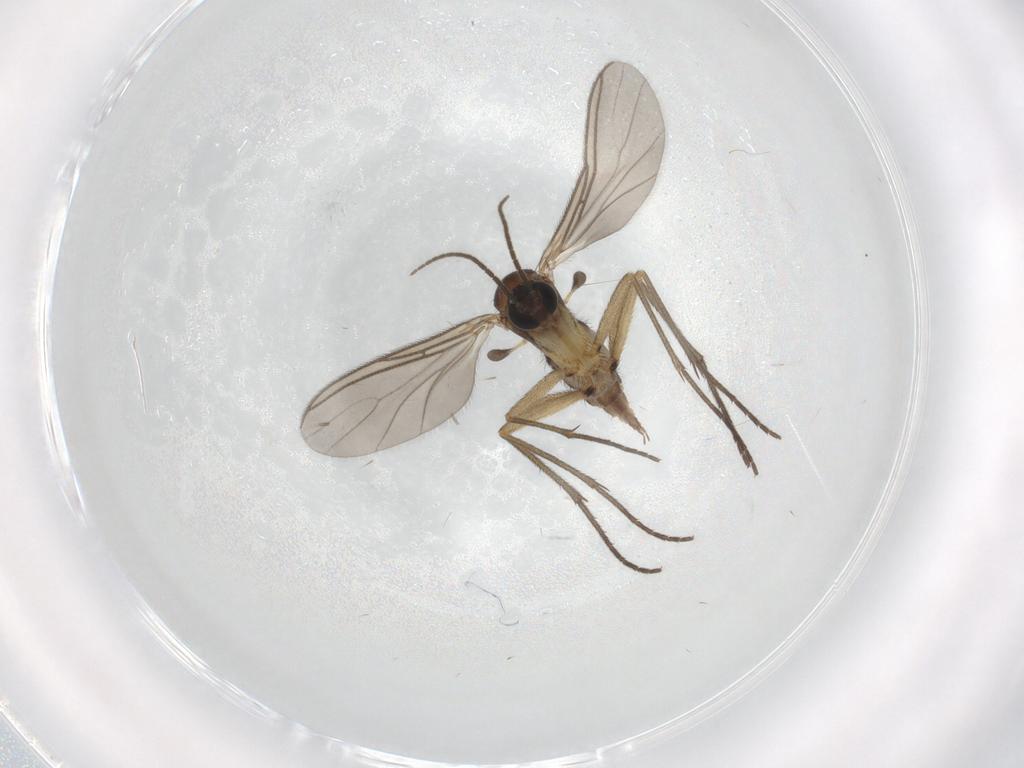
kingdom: Animalia
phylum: Arthropoda
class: Insecta
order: Diptera
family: Sciaridae
